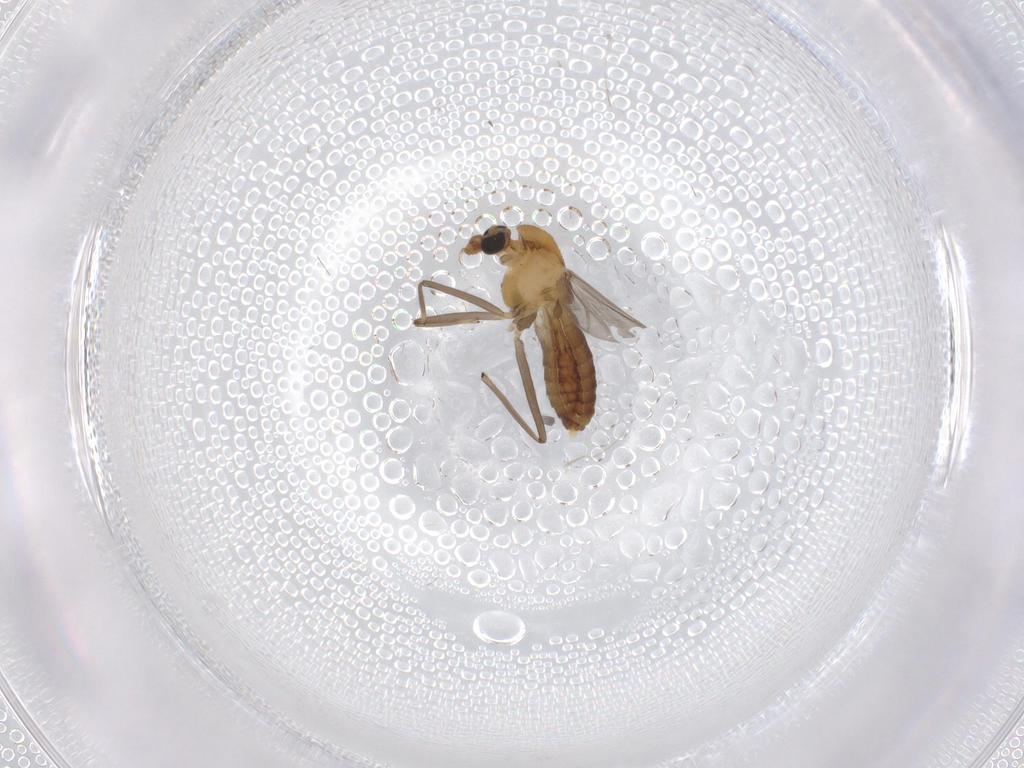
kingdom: Animalia
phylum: Arthropoda
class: Insecta
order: Diptera
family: Chironomidae
